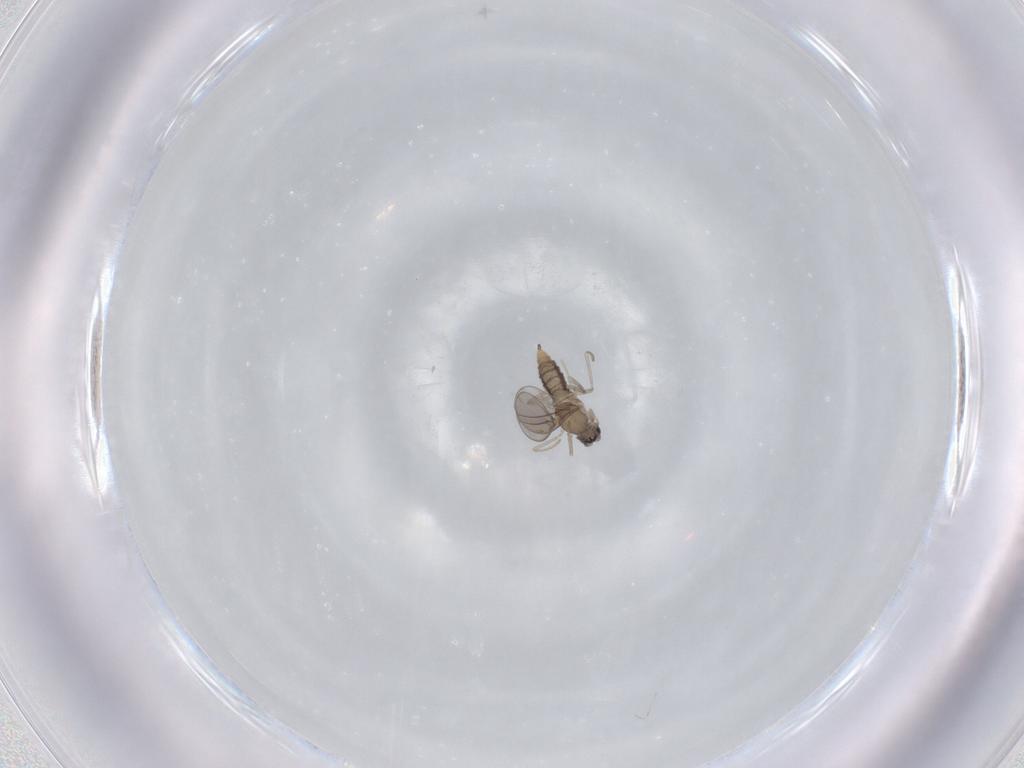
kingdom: Animalia
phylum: Arthropoda
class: Insecta
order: Diptera
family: Cecidomyiidae
